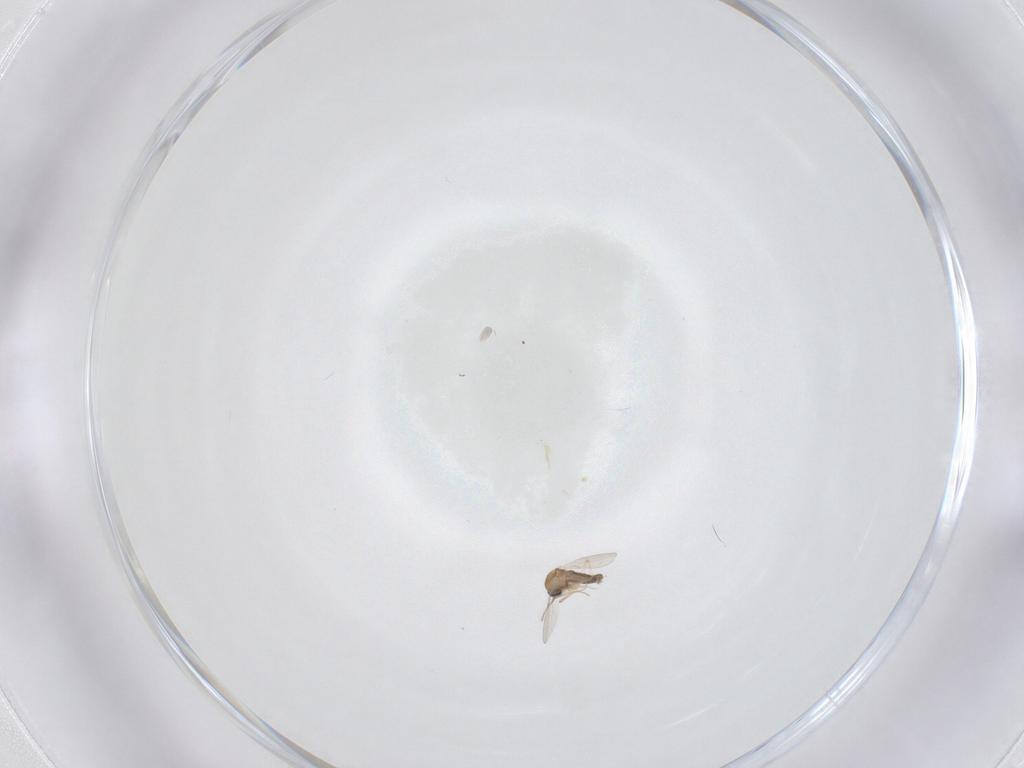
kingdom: Animalia
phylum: Arthropoda
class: Insecta
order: Diptera
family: Ceratopogonidae
